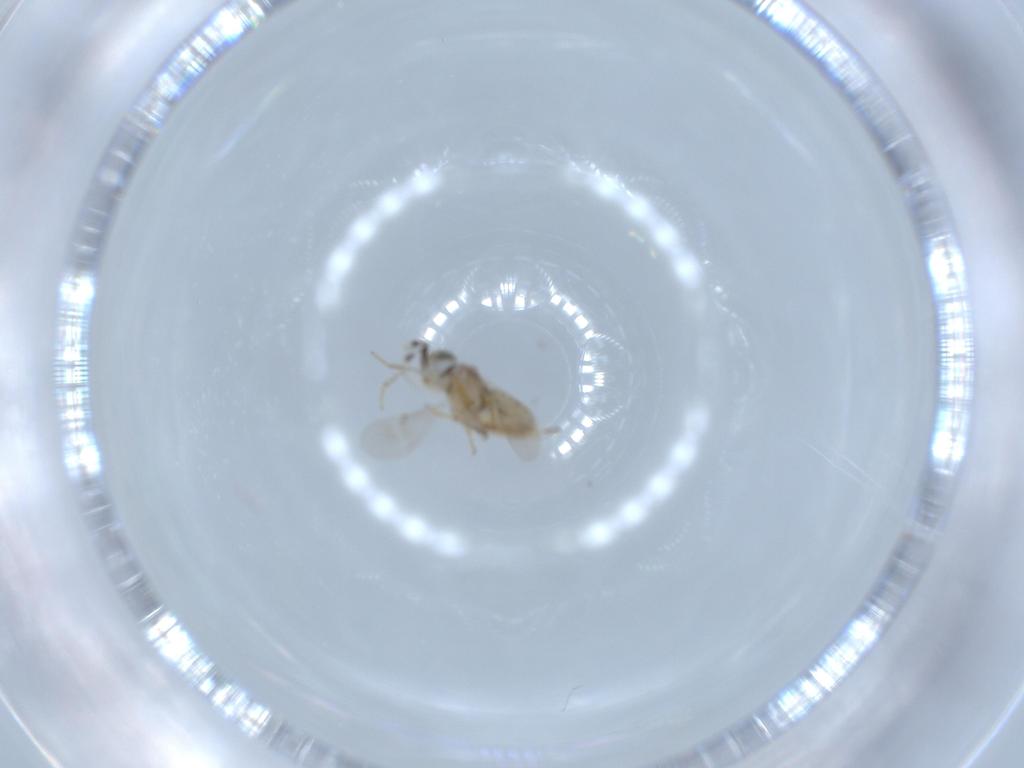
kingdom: Animalia
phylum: Arthropoda
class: Insecta
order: Coleoptera
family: Throscidae
